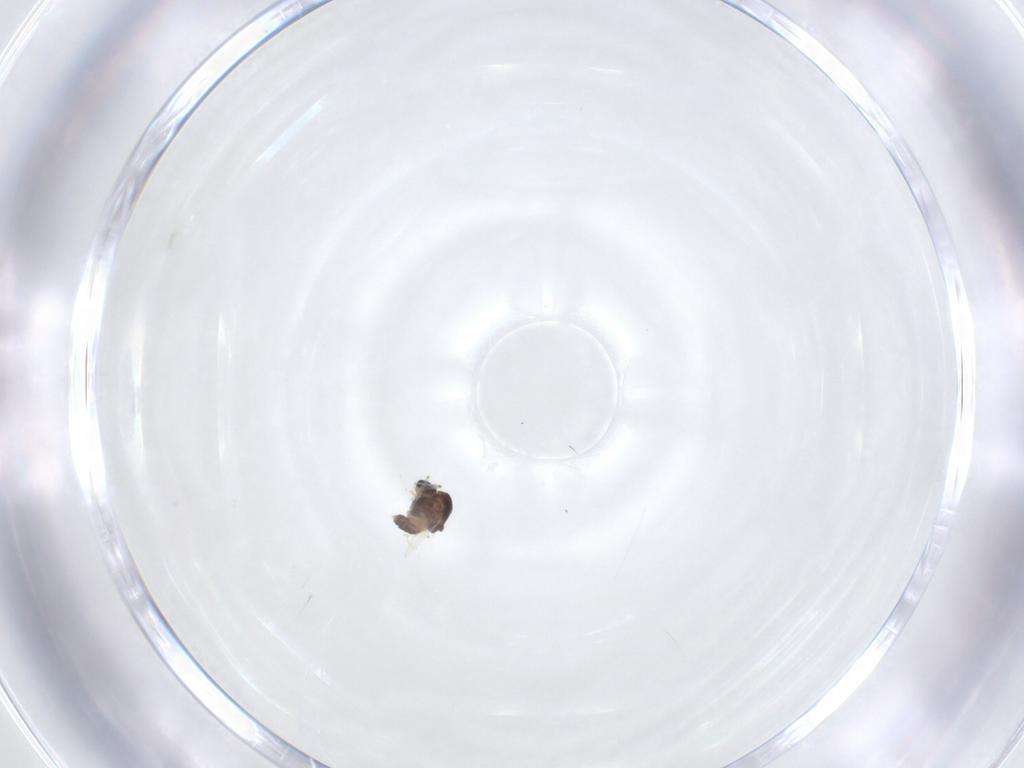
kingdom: Animalia
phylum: Arthropoda
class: Insecta
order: Diptera
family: Chironomidae
